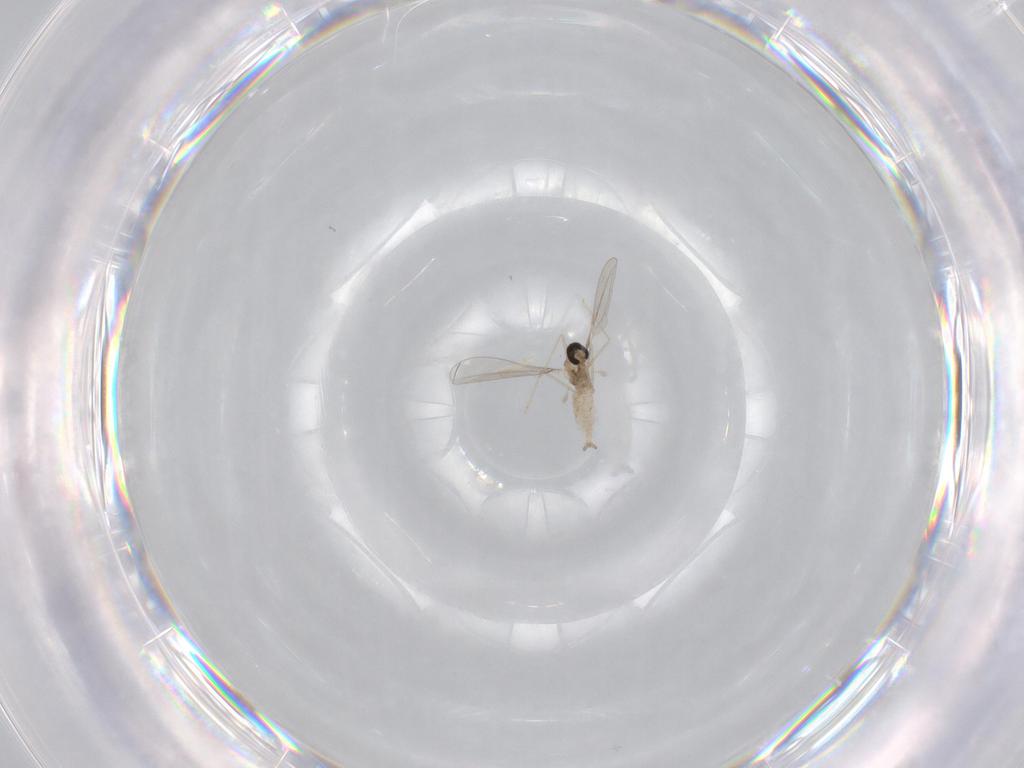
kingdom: Animalia
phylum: Arthropoda
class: Insecta
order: Diptera
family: Cecidomyiidae
